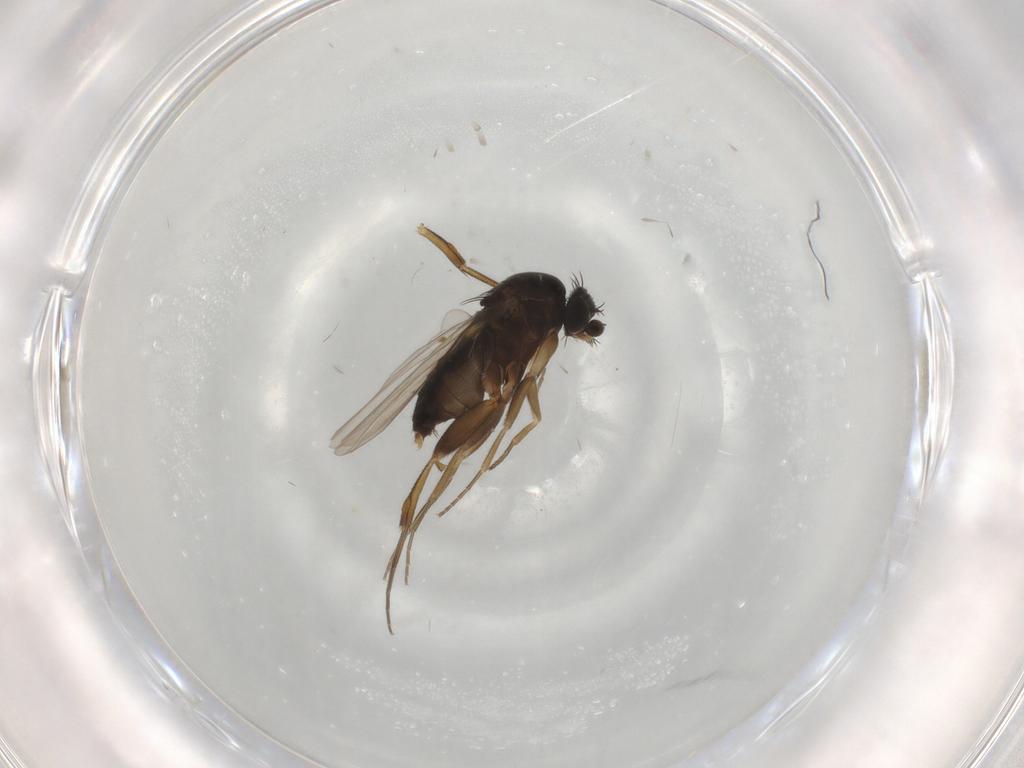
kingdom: Animalia
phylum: Arthropoda
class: Insecta
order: Diptera
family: Phoridae
